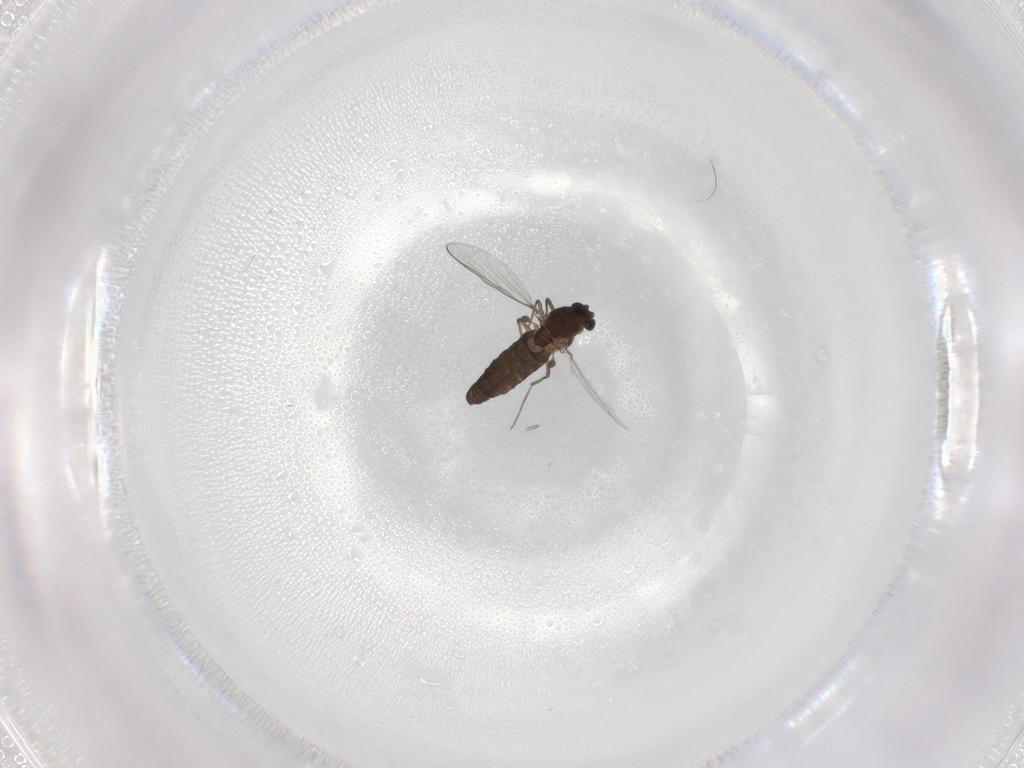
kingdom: Animalia
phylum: Arthropoda
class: Insecta
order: Diptera
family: Chironomidae
